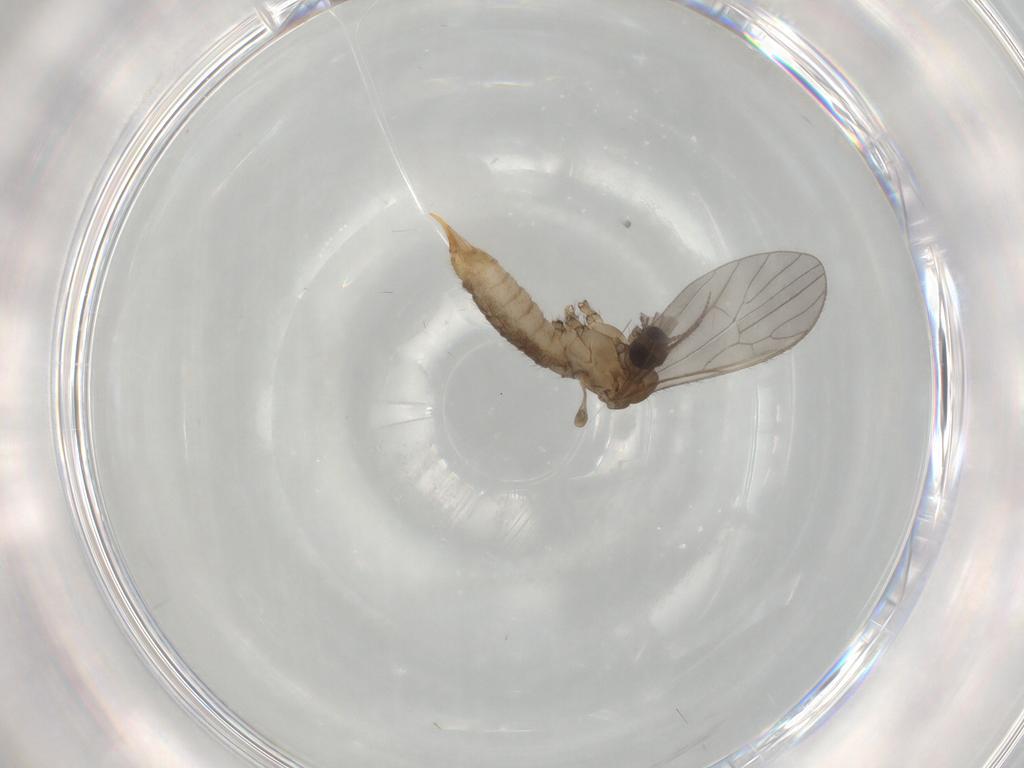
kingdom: Animalia
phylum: Arthropoda
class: Insecta
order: Diptera
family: Limoniidae
